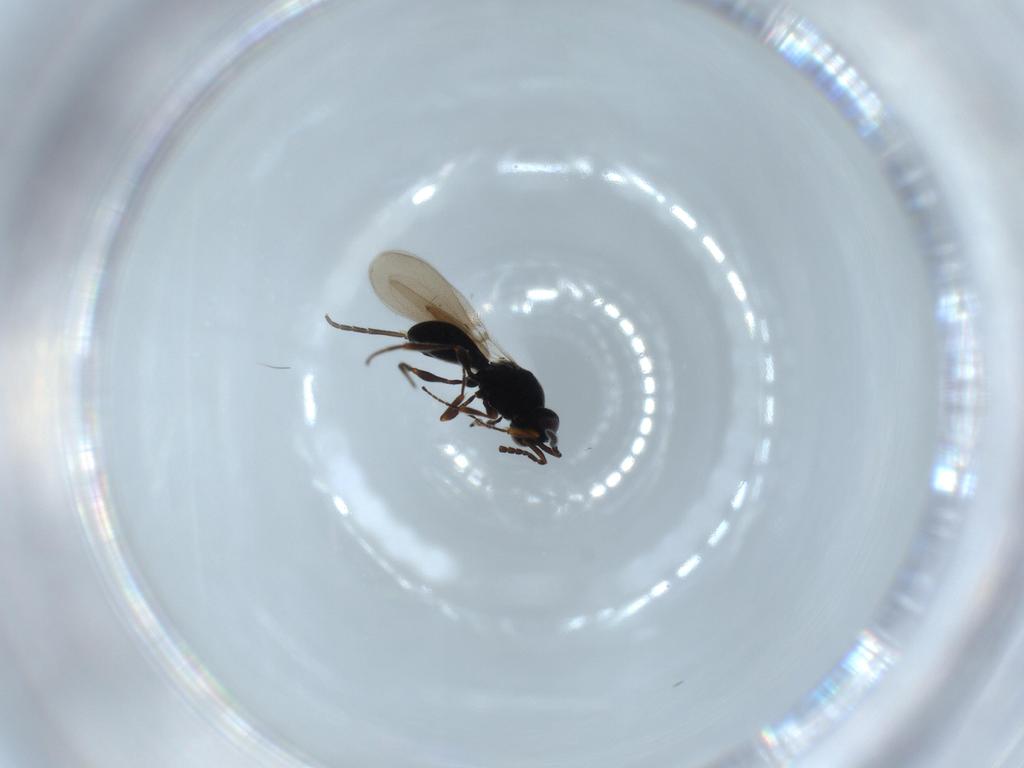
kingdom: Animalia
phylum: Arthropoda
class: Insecta
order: Hymenoptera
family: Platygastridae
